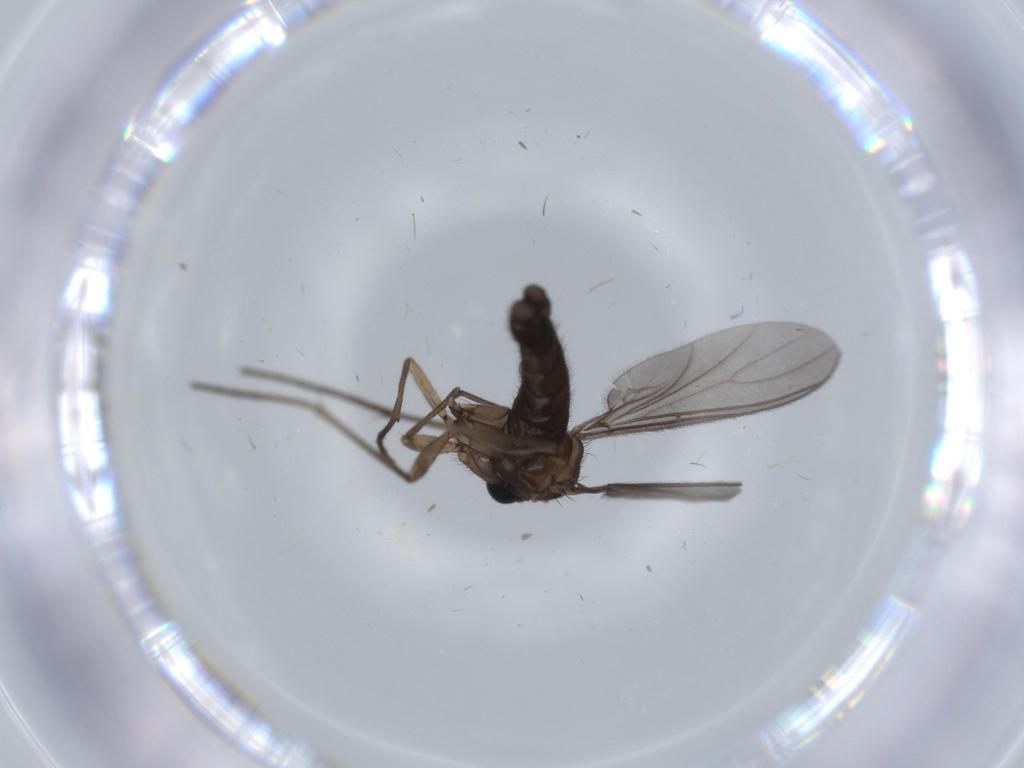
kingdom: Animalia
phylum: Arthropoda
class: Insecta
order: Diptera
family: Sciaridae
